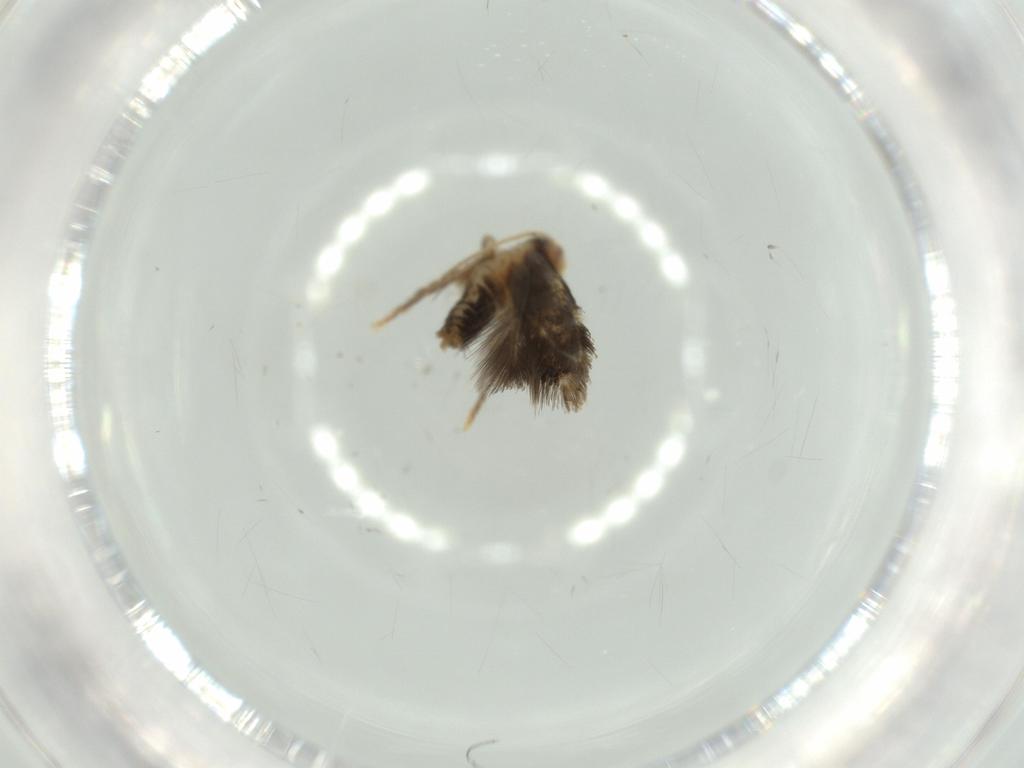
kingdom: Animalia
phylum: Arthropoda
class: Insecta
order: Lepidoptera
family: Nepticulidae
